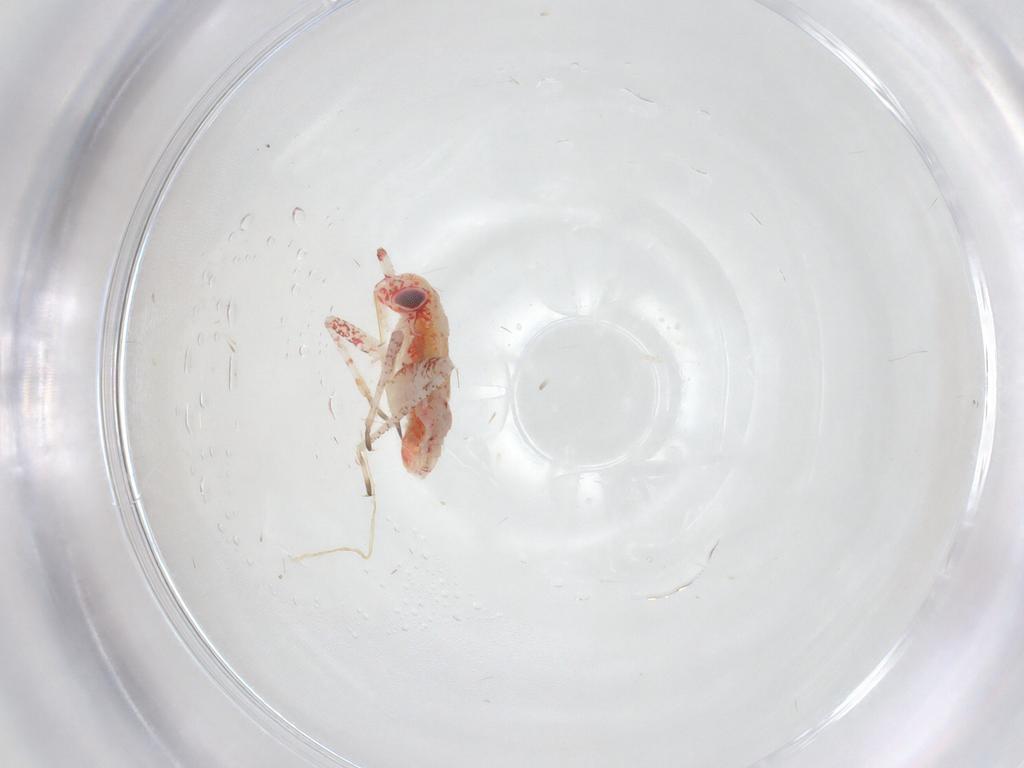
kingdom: Animalia
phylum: Arthropoda
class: Insecta
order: Hemiptera
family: Miridae
